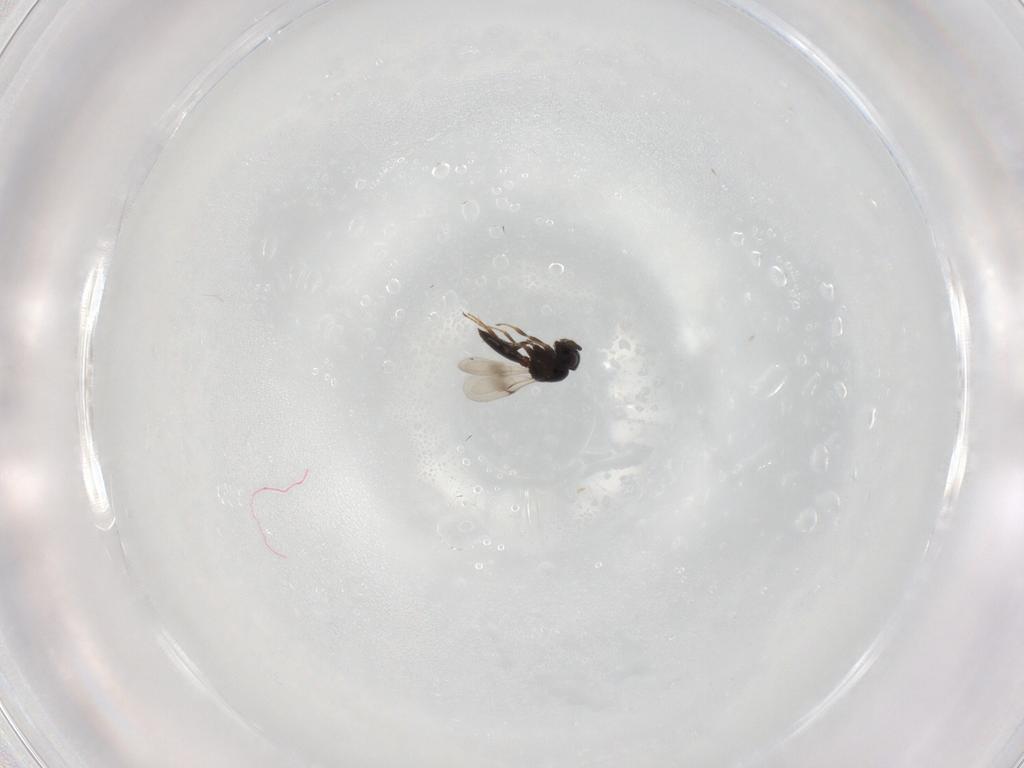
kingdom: Animalia
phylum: Arthropoda
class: Insecta
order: Hymenoptera
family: Scelionidae
